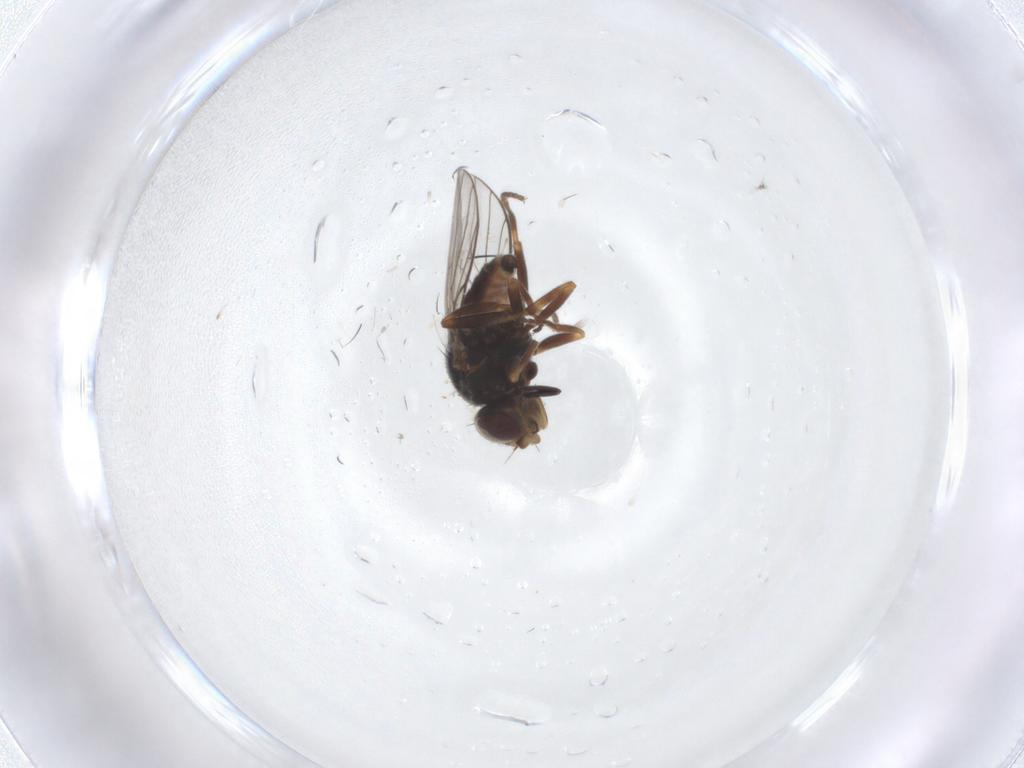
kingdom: Animalia
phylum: Arthropoda
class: Insecta
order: Diptera
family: Chloropidae
